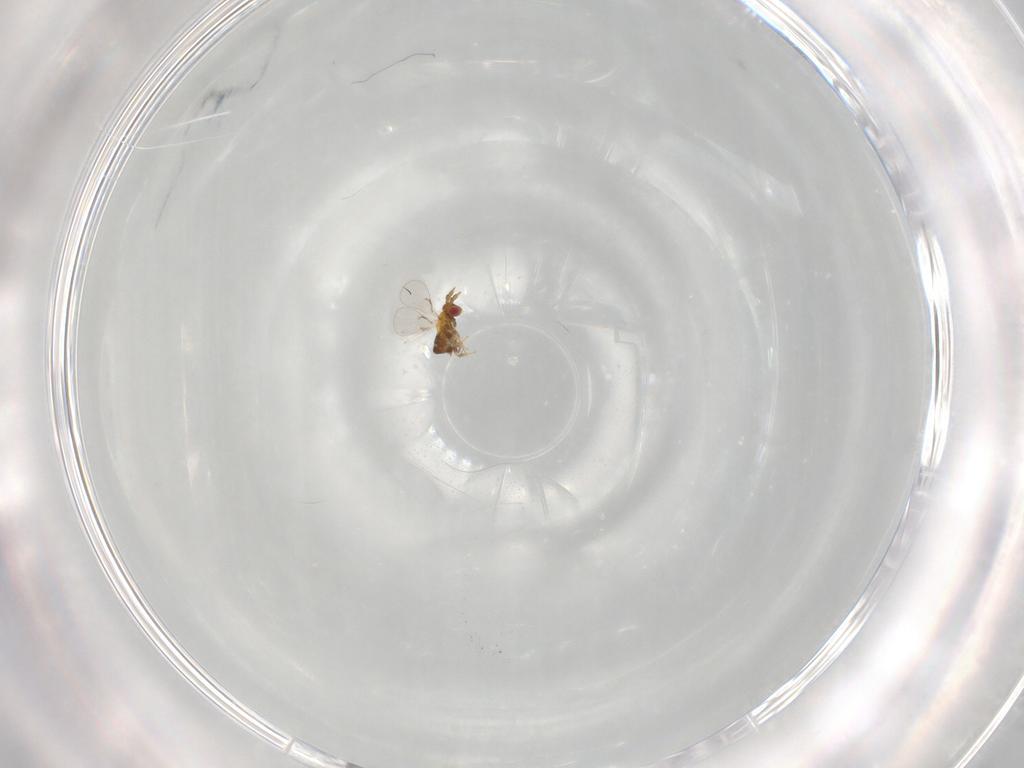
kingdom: Animalia
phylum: Arthropoda
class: Insecta
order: Hymenoptera
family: Trichogrammatidae
